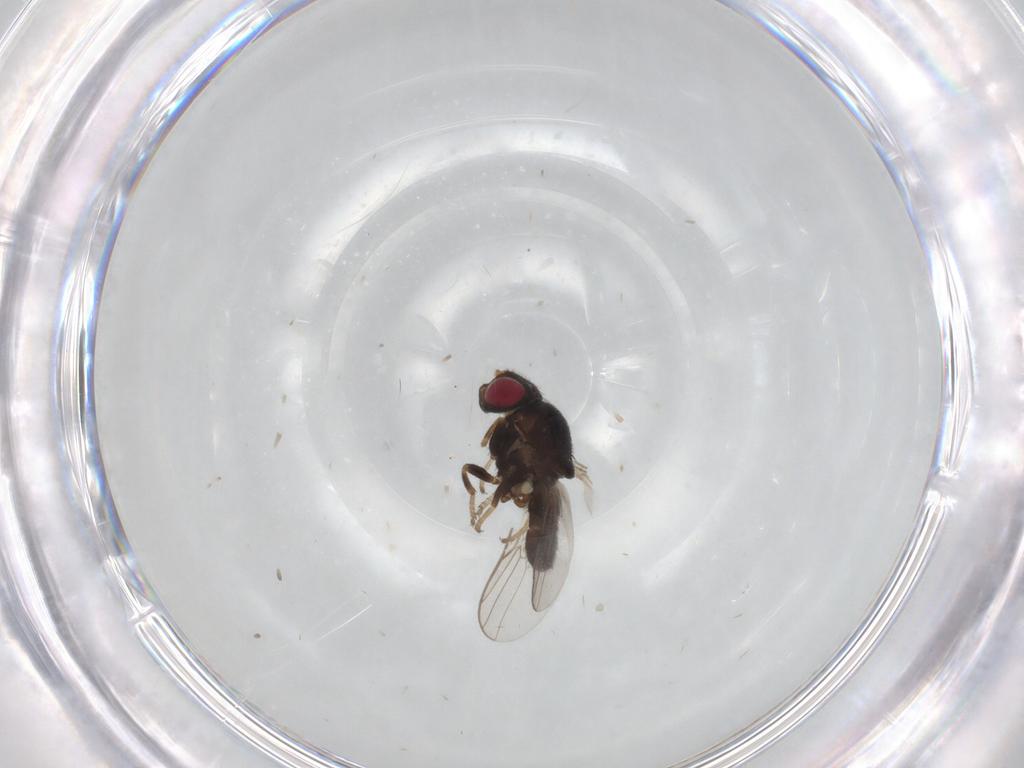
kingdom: Animalia
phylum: Arthropoda
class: Insecta
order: Diptera
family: Chloropidae
